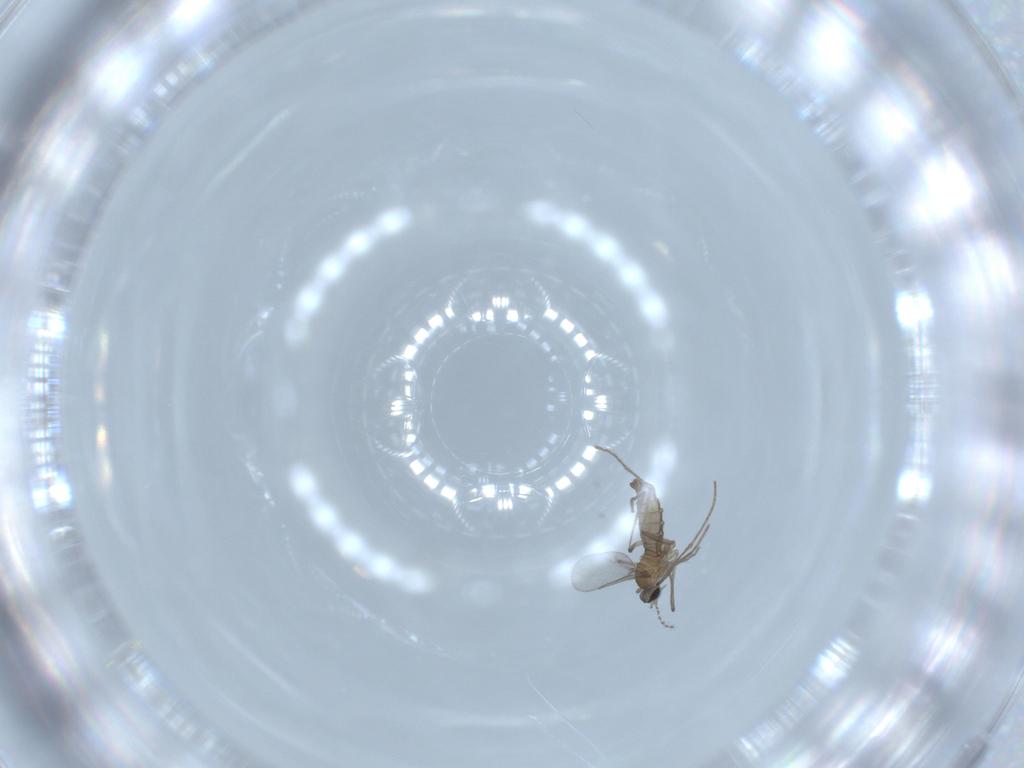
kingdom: Animalia
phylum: Arthropoda
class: Insecta
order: Diptera
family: Cecidomyiidae
